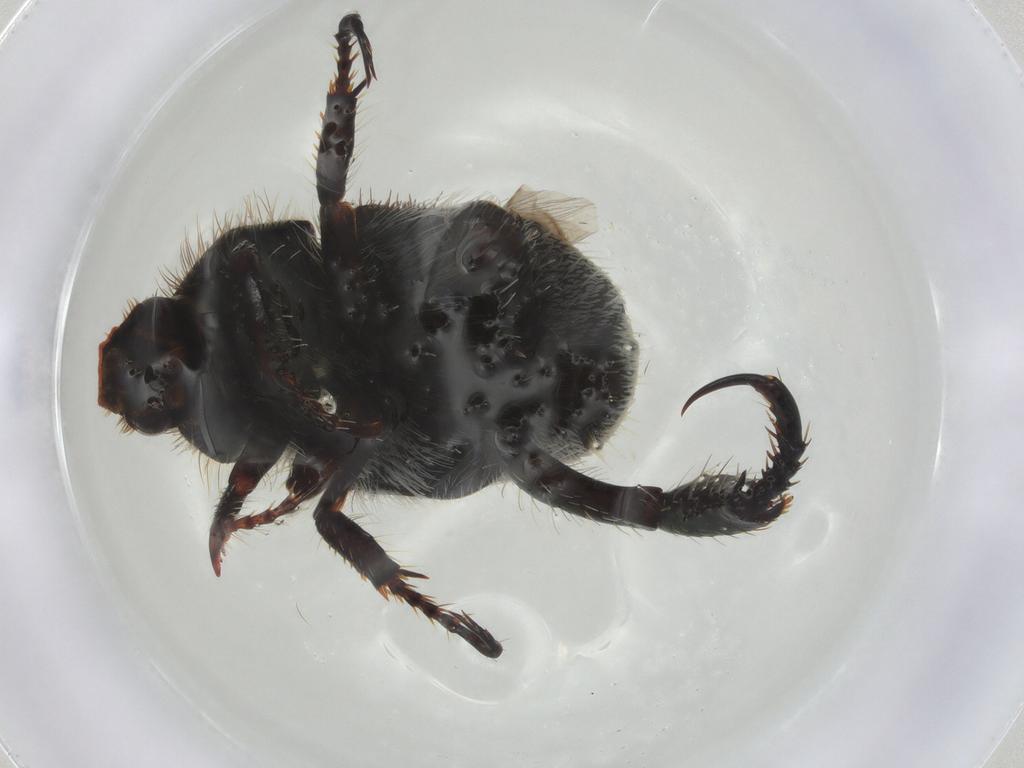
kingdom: Animalia
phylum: Arthropoda
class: Insecta
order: Coleoptera
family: Scarabaeidae
